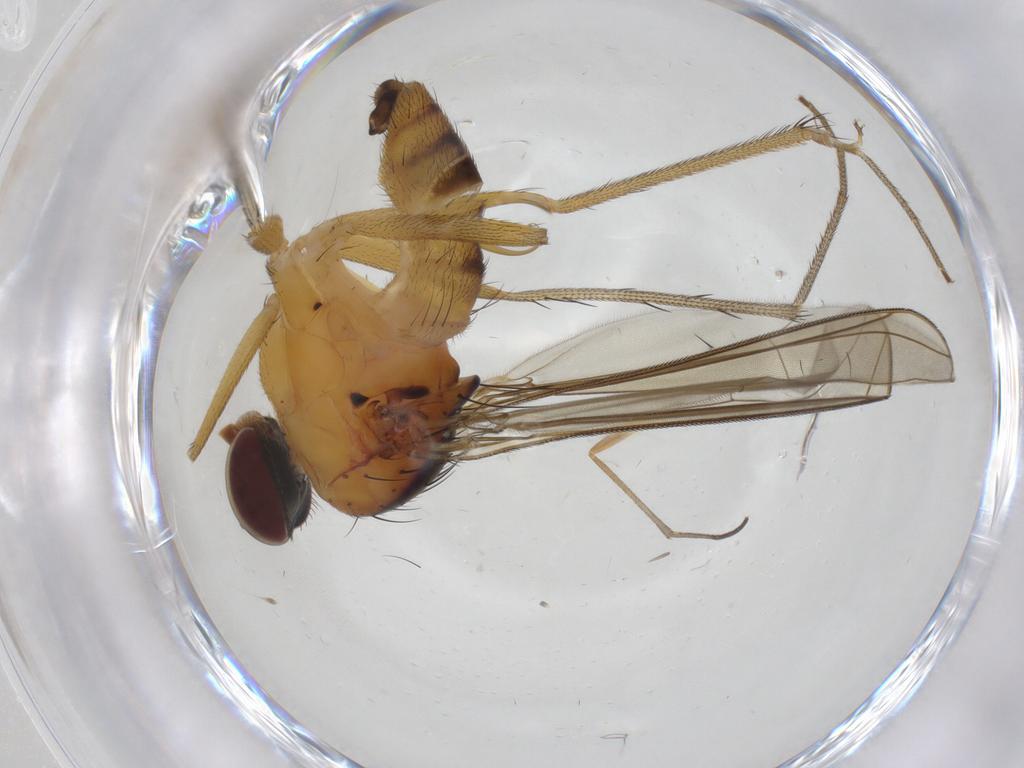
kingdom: Animalia
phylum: Arthropoda
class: Insecta
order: Diptera
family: Dolichopodidae
